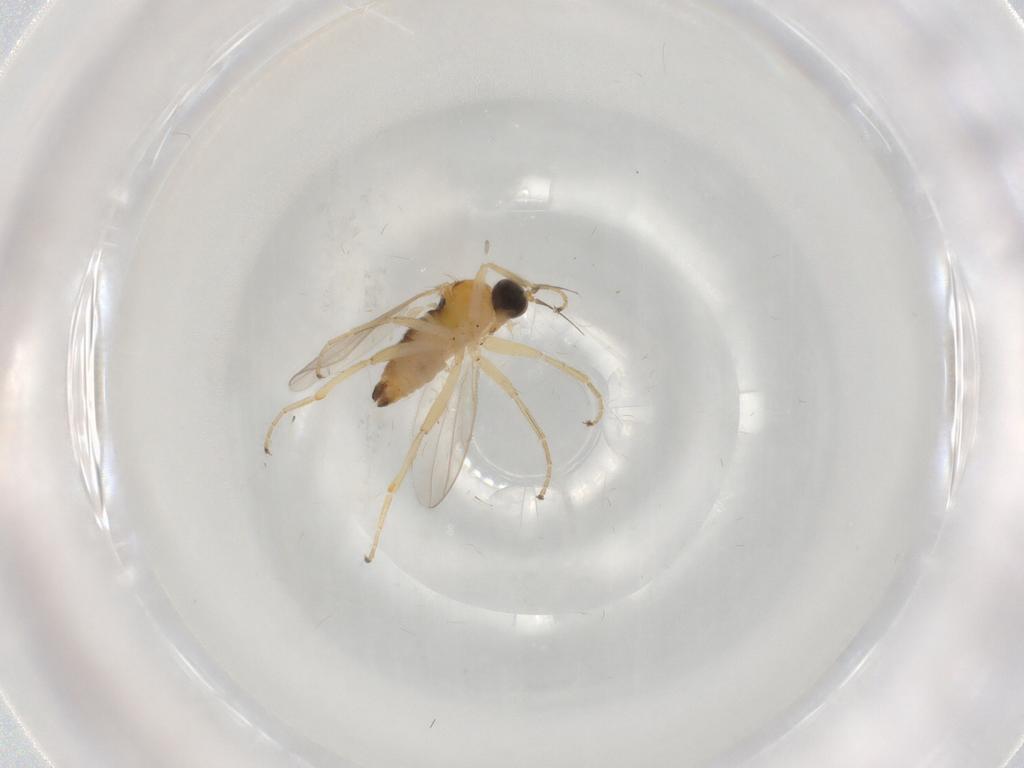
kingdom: Animalia
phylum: Arthropoda
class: Insecta
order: Diptera
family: Hybotidae
